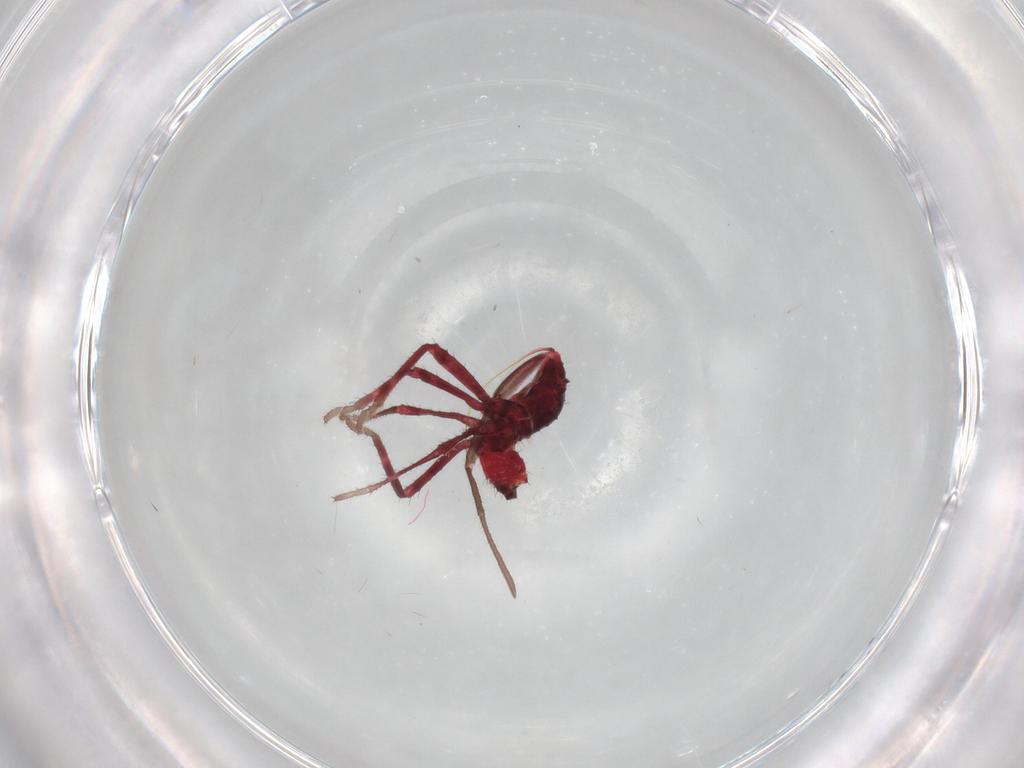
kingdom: Animalia
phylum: Arthropoda
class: Insecta
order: Hemiptera
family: Coreidae
